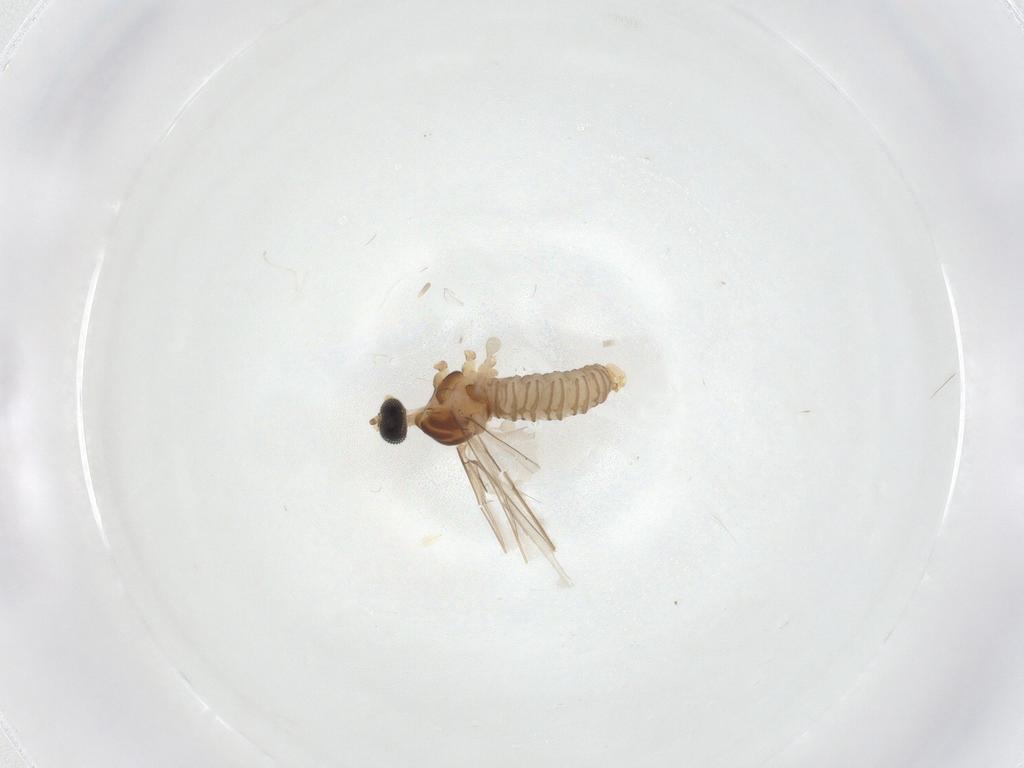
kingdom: Animalia
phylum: Arthropoda
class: Insecta
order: Diptera
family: Cecidomyiidae
